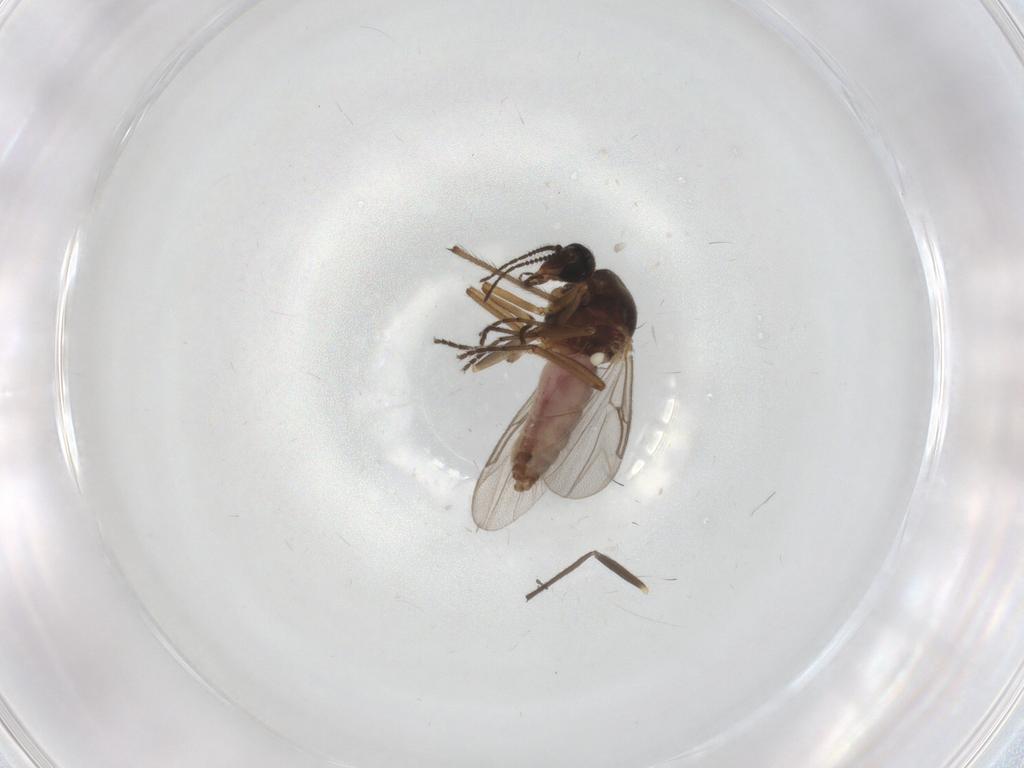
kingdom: Animalia
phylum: Arthropoda
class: Insecta
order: Diptera
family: Ceratopogonidae
